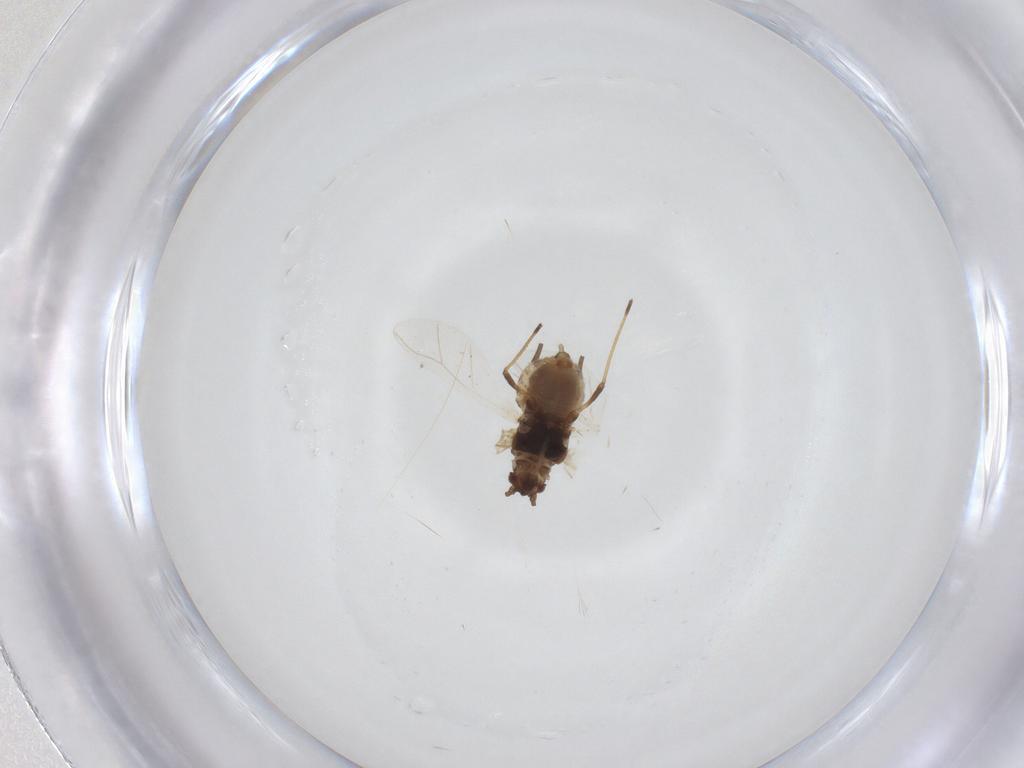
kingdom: Animalia
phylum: Arthropoda
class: Insecta
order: Hemiptera
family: Aphididae
